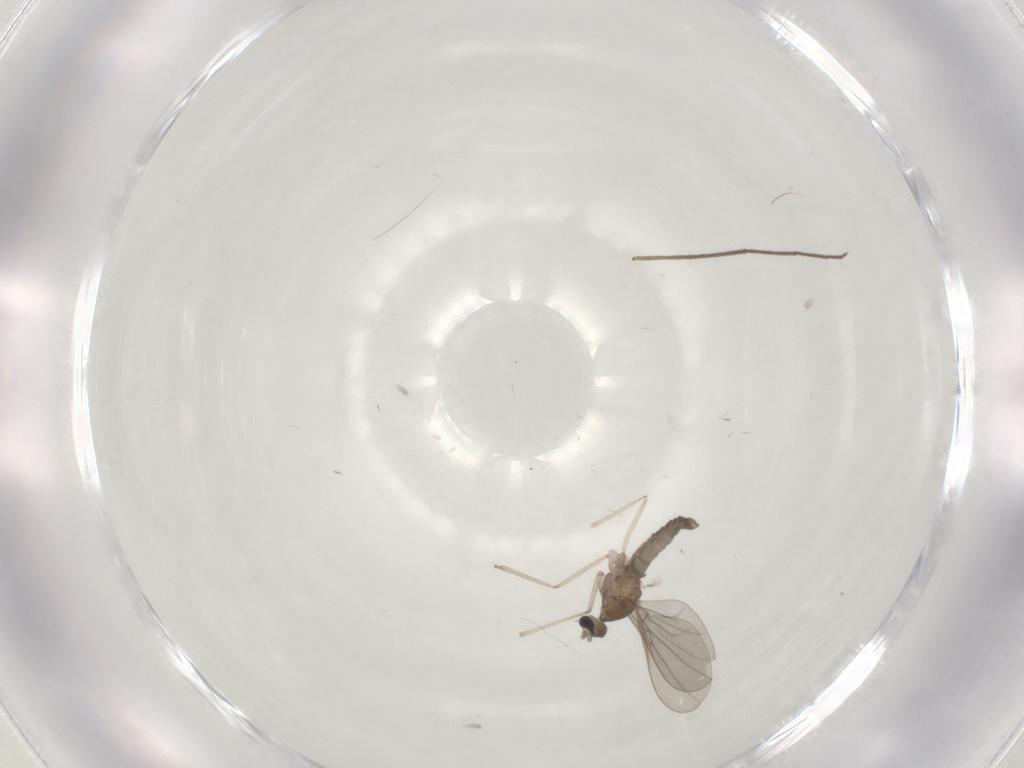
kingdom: Animalia
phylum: Arthropoda
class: Insecta
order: Diptera
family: Cecidomyiidae
